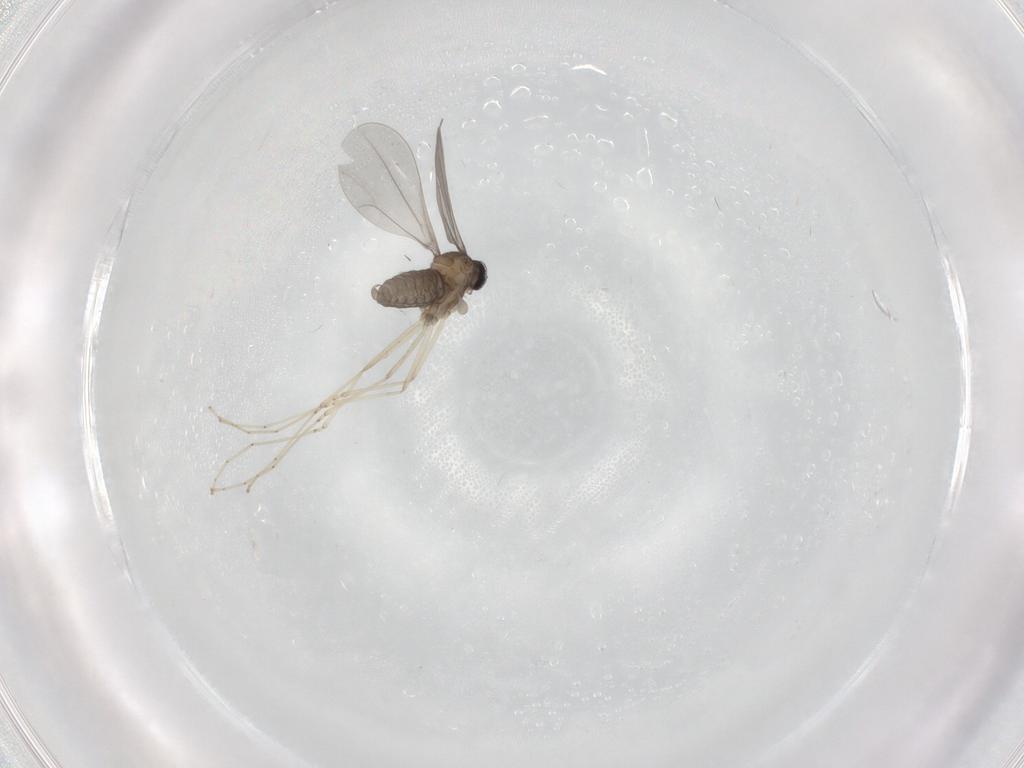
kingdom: Animalia
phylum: Arthropoda
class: Insecta
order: Diptera
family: Cecidomyiidae
